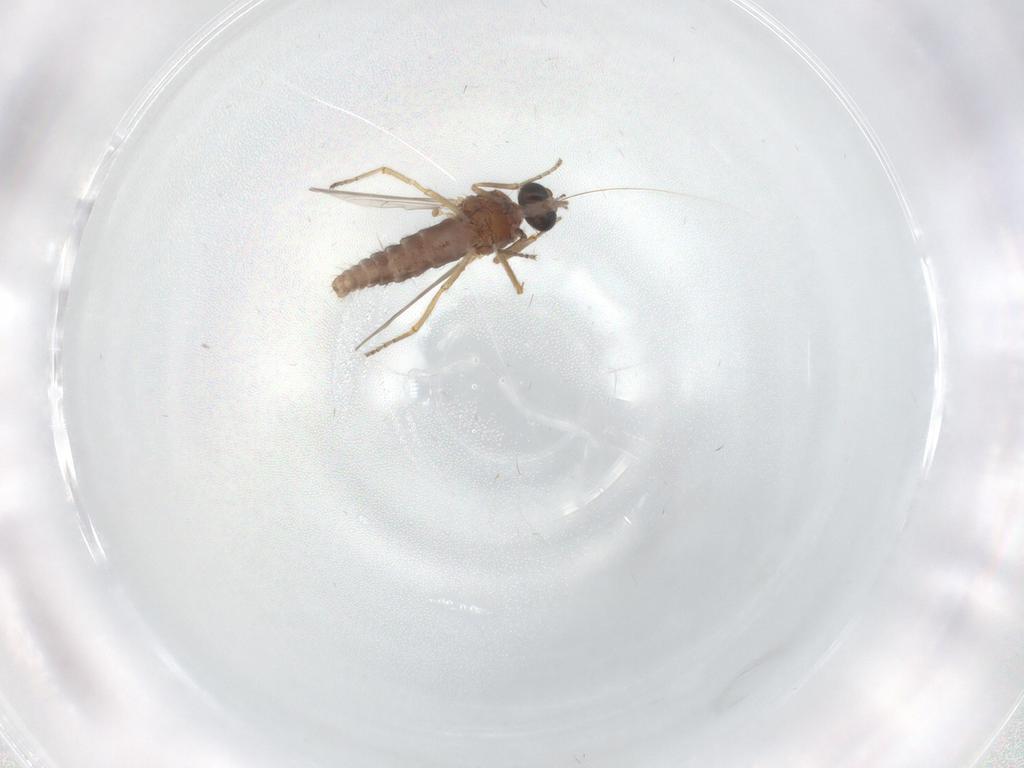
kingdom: Animalia
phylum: Arthropoda
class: Insecta
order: Diptera
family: Ceratopogonidae
